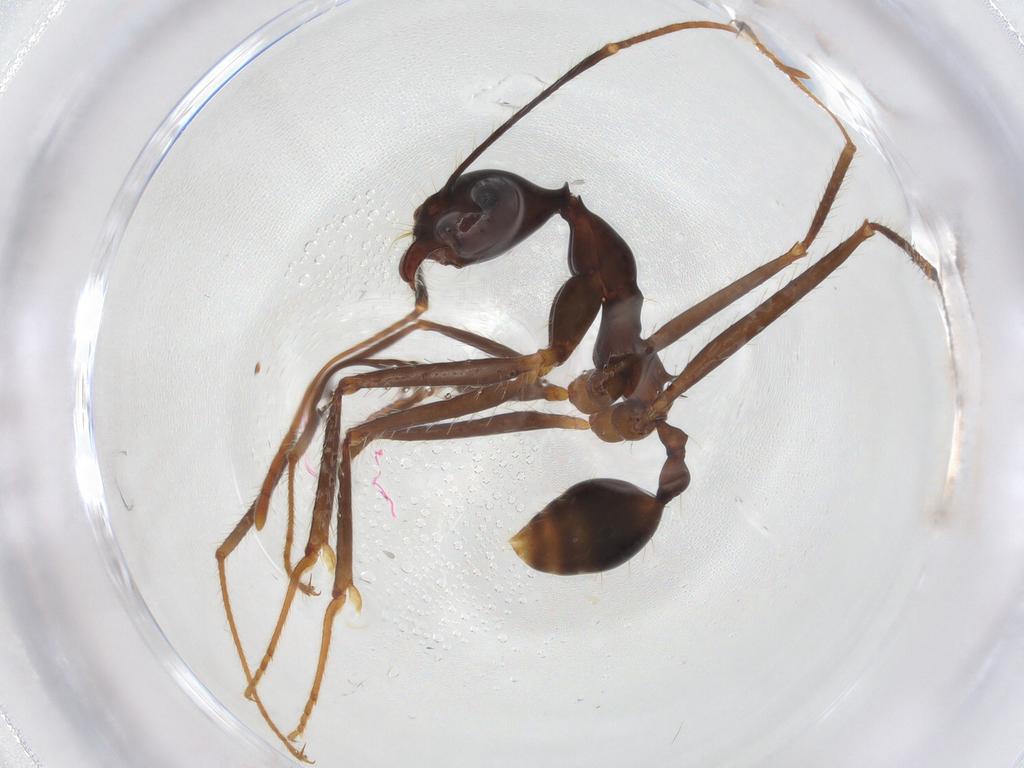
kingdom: Animalia
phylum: Arthropoda
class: Insecta
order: Hymenoptera
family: Formicidae
